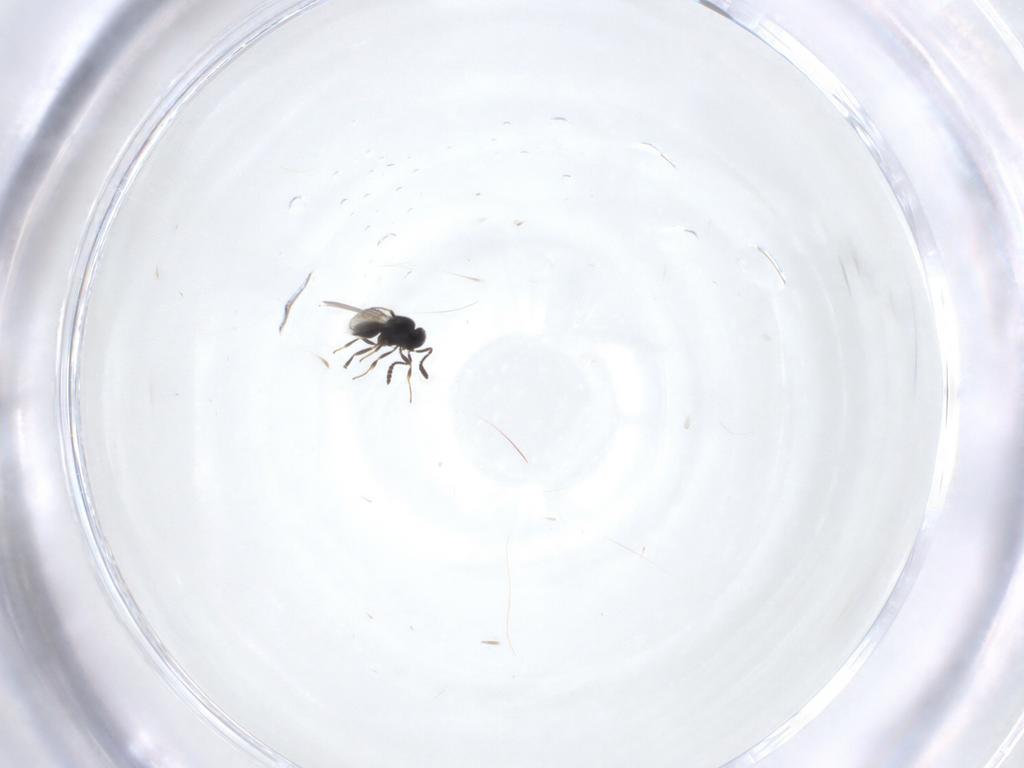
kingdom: Animalia
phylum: Arthropoda
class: Insecta
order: Hymenoptera
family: Scelionidae
